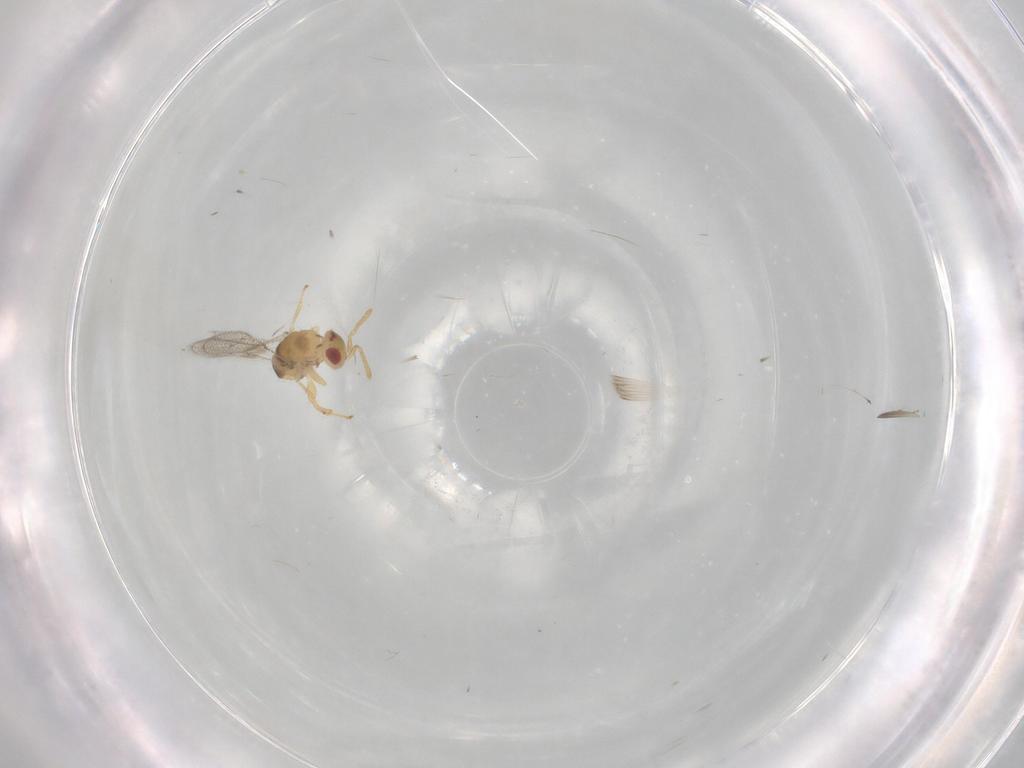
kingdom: Animalia
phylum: Arthropoda
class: Insecta
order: Hymenoptera
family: Torymidae
